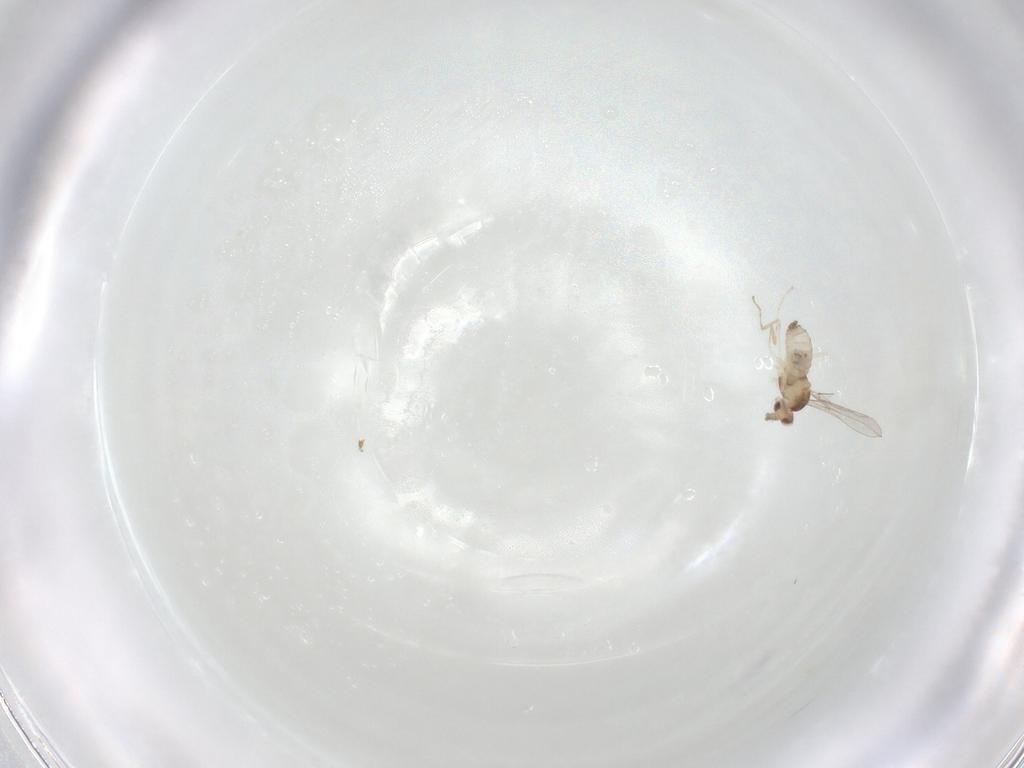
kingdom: Animalia
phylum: Arthropoda
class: Insecta
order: Diptera
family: Cecidomyiidae
